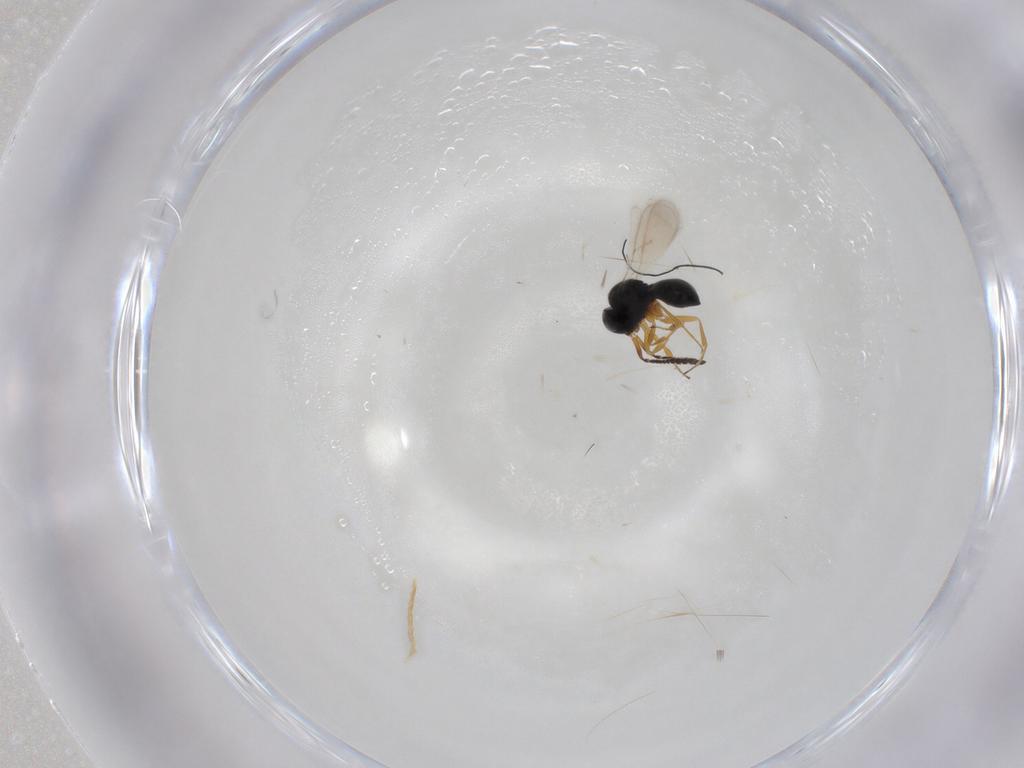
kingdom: Animalia
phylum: Arthropoda
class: Insecta
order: Hymenoptera
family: Scelionidae
